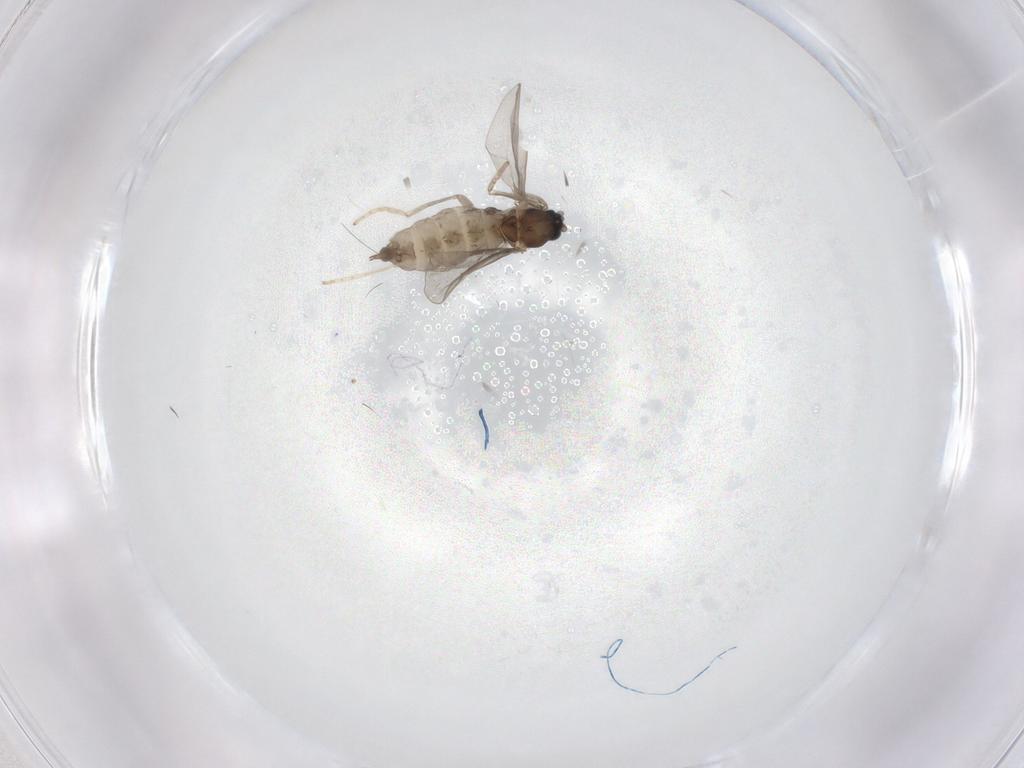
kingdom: Animalia
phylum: Arthropoda
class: Insecta
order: Diptera
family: Cecidomyiidae
